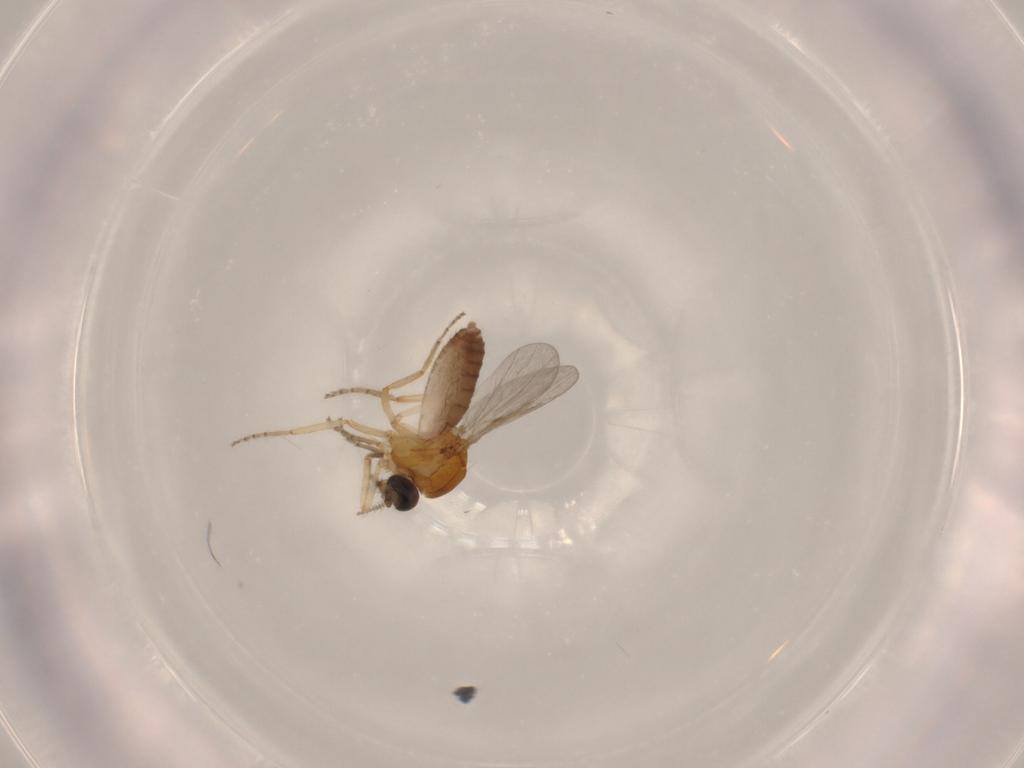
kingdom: Animalia
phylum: Arthropoda
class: Insecta
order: Diptera
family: Ceratopogonidae
